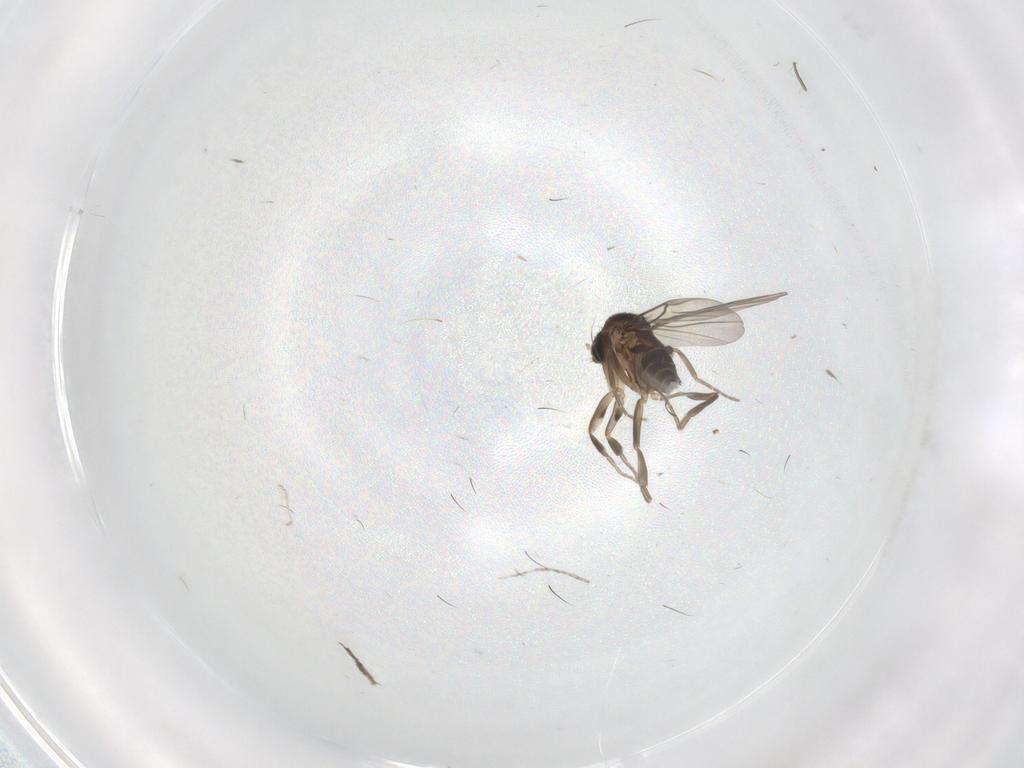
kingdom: Animalia
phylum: Arthropoda
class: Insecta
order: Diptera
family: Phoridae
